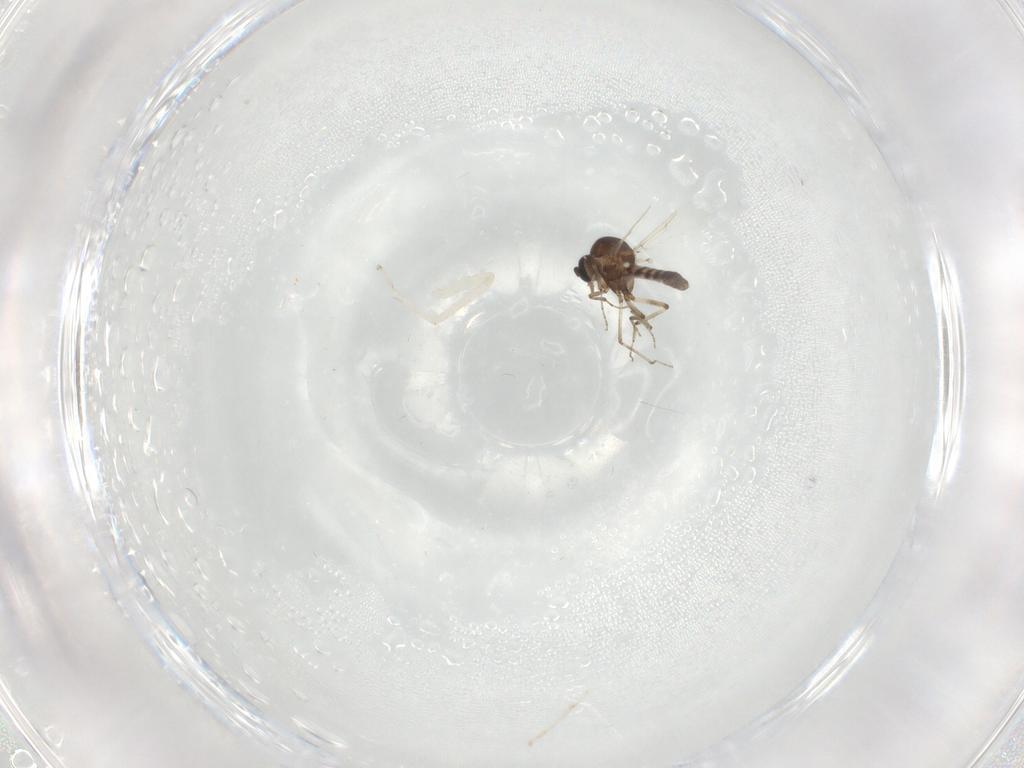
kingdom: Animalia
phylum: Arthropoda
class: Insecta
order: Diptera
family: Ceratopogonidae
